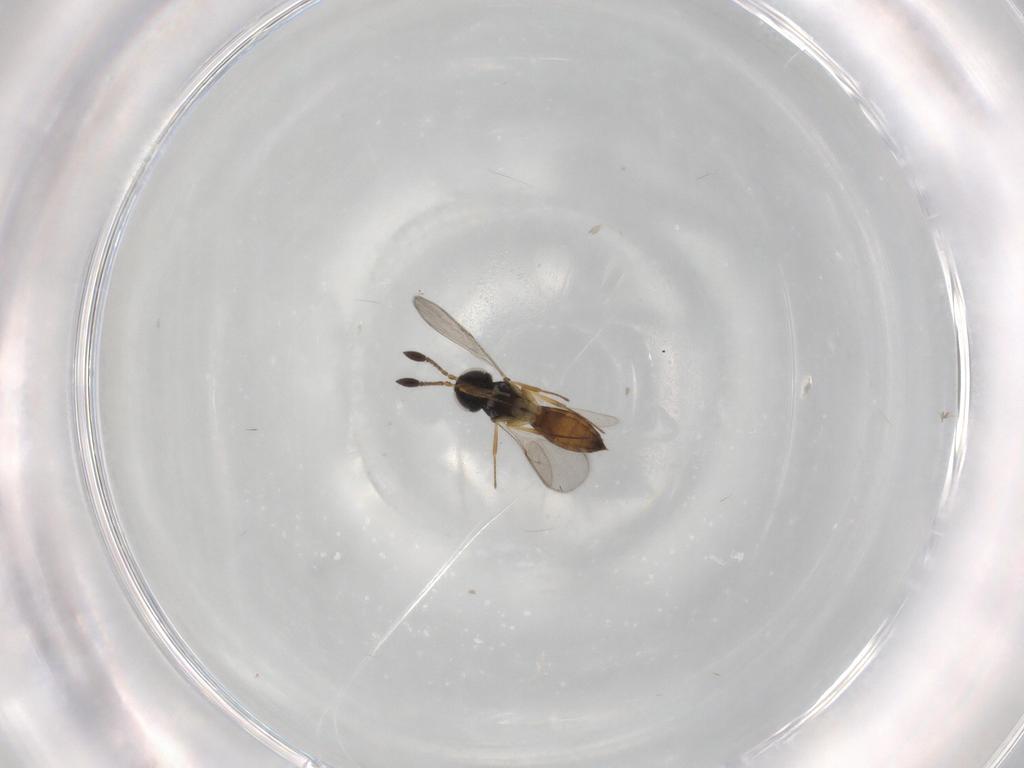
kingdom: Animalia
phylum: Arthropoda
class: Insecta
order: Hymenoptera
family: Scelionidae
